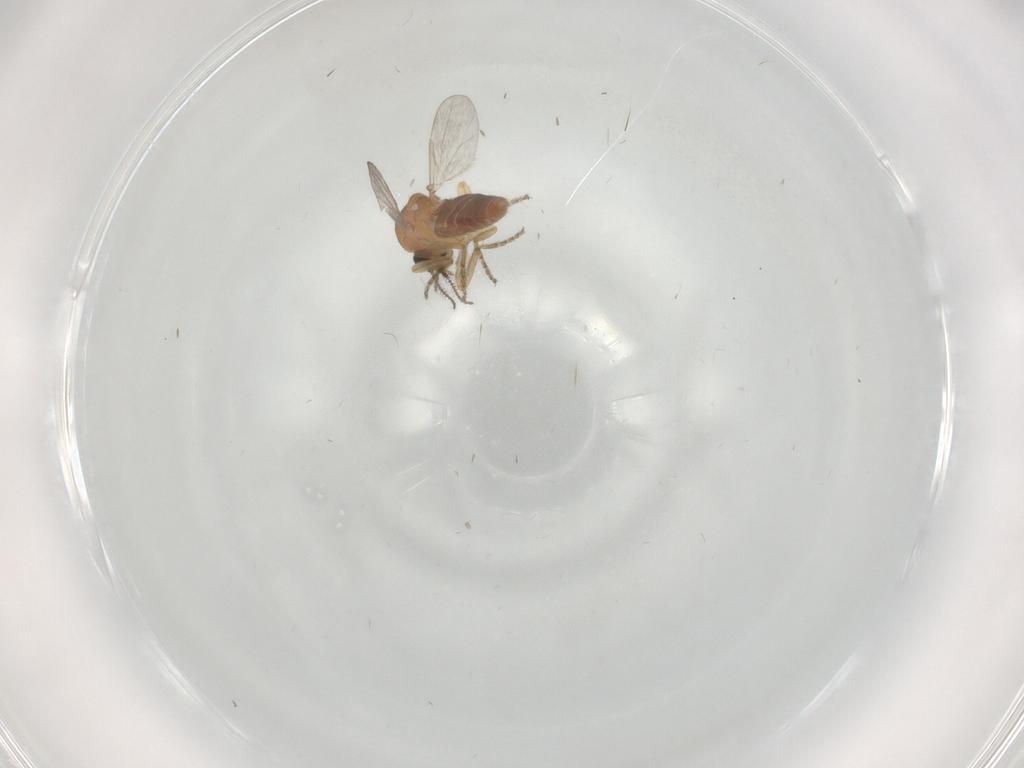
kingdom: Animalia
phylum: Arthropoda
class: Insecta
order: Diptera
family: Ceratopogonidae
